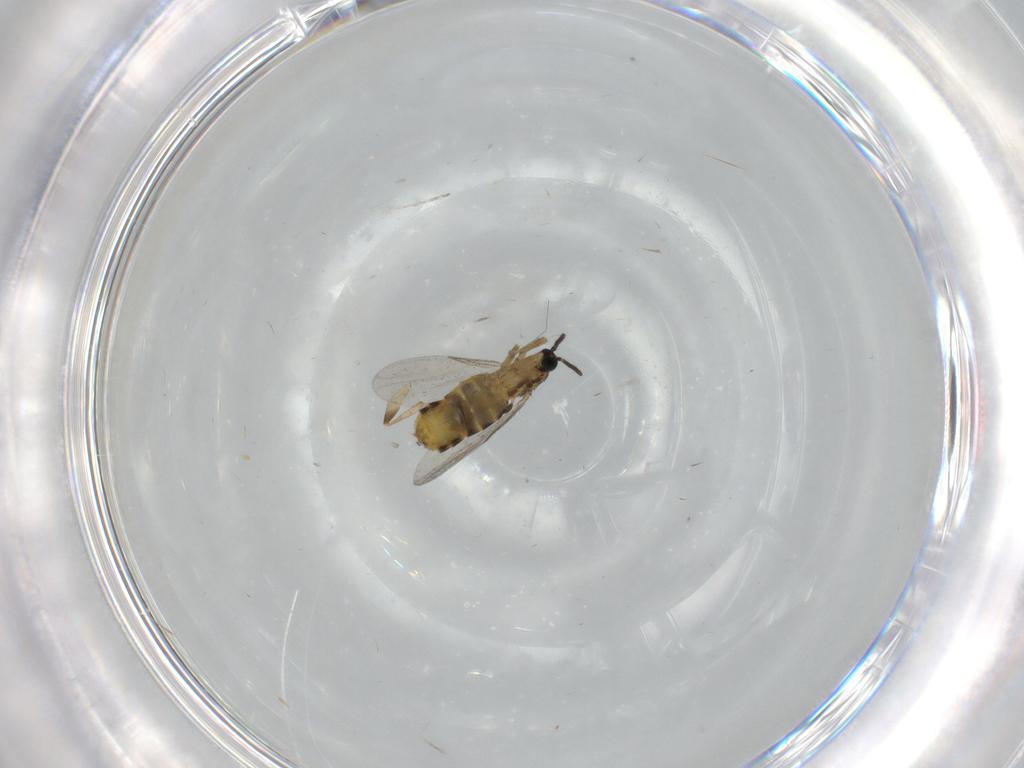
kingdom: Animalia
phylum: Arthropoda
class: Insecta
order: Diptera
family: Scatopsidae
